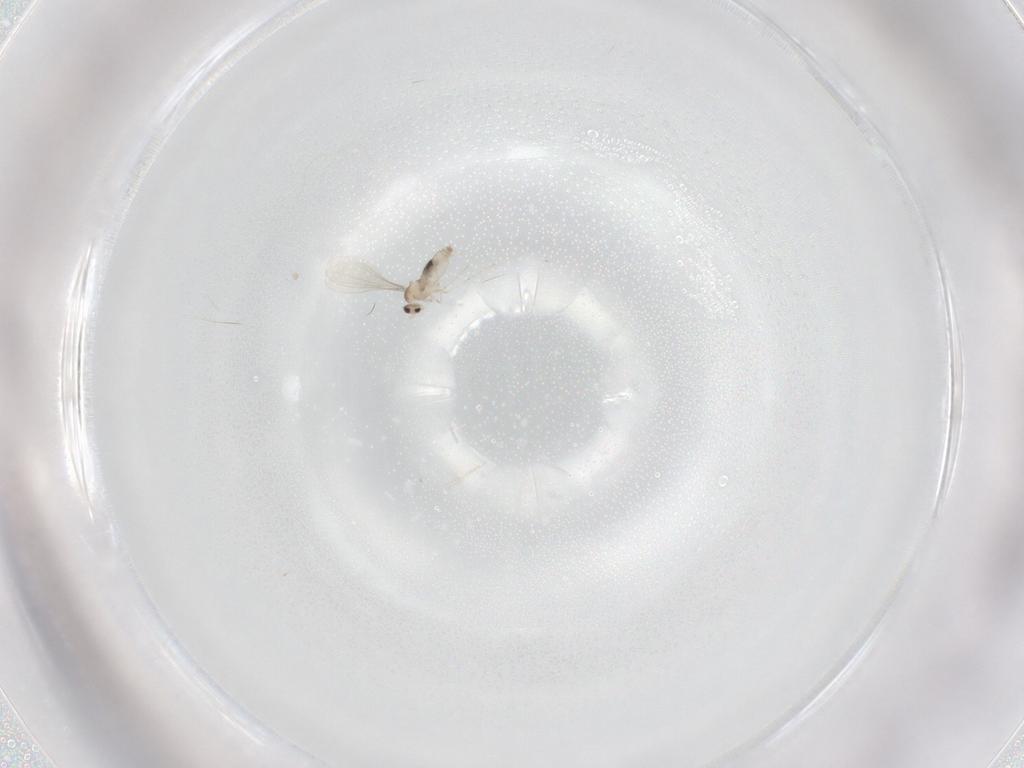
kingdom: Animalia
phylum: Arthropoda
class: Insecta
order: Diptera
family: Cecidomyiidae
